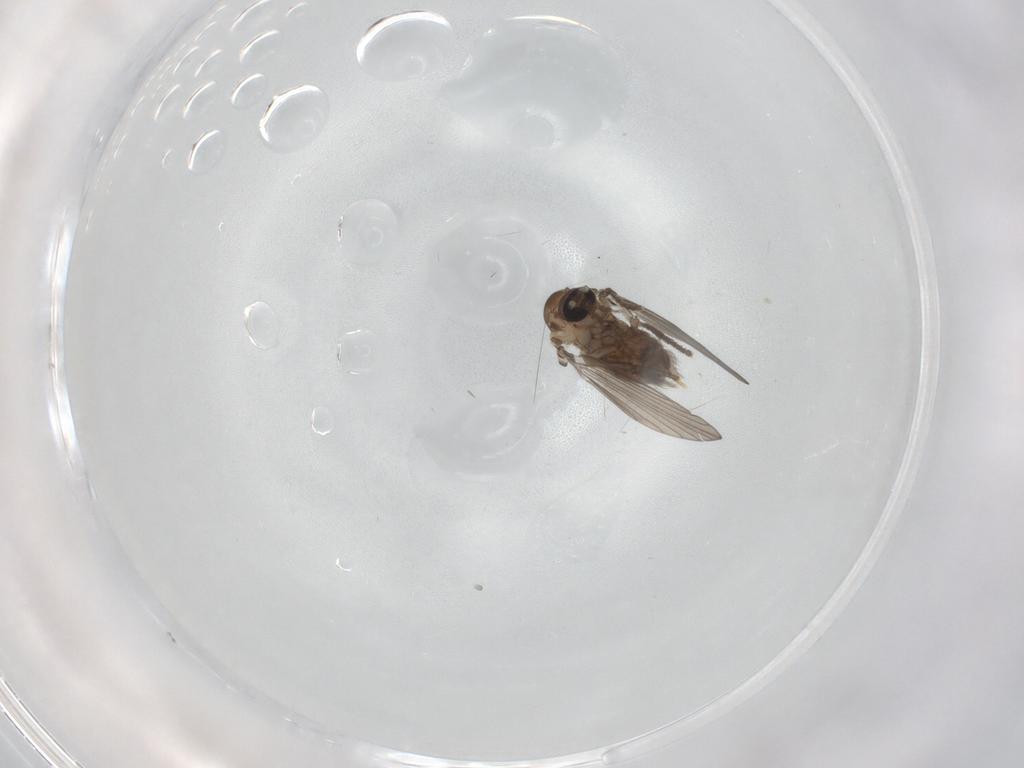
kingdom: Animalia
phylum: Arthropoda
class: Insecta
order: Diptera
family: Psychodidae
